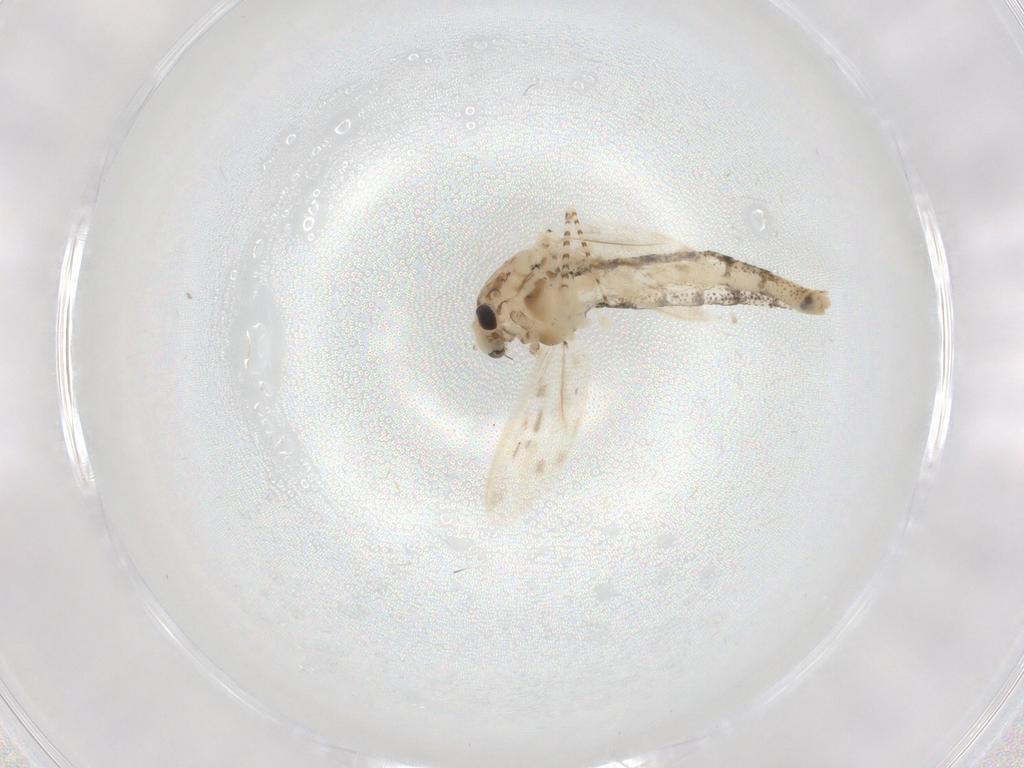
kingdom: Animalia
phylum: Arthropoda
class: Insecta
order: Diptera
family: Chaoboridae
